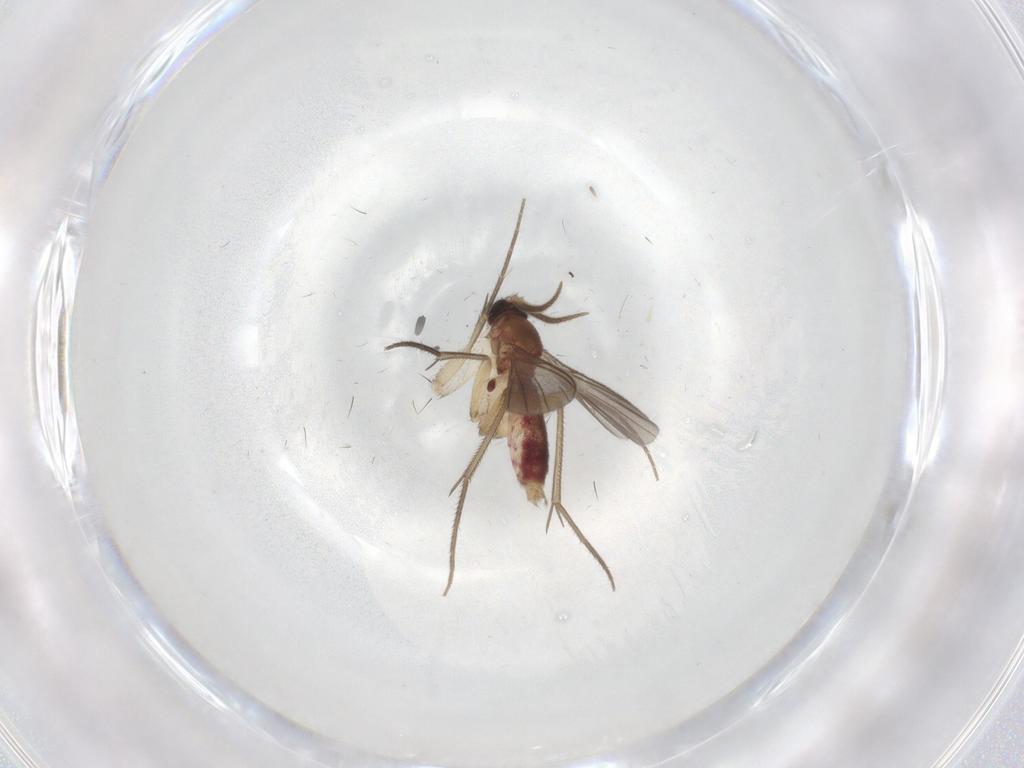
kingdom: Animalia
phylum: Arthropoda
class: Insecta
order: Diptera
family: Mycetophilidae
